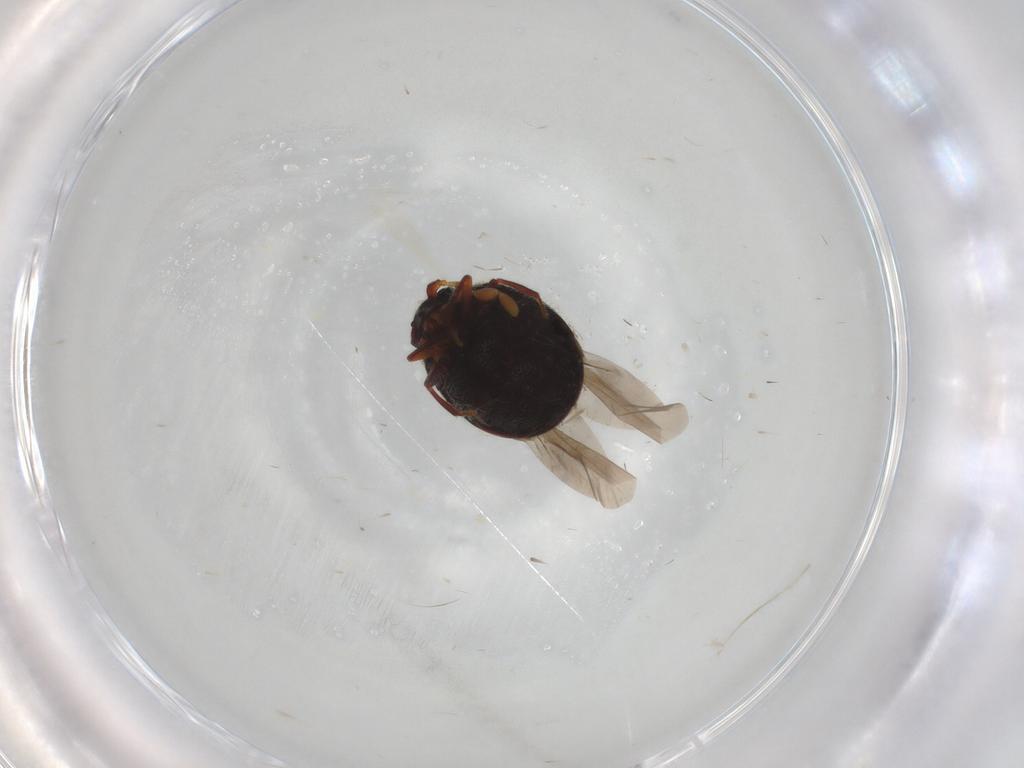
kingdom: Animalia
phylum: Arthropoda
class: Insecta
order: Coleoptera
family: Ptinidae
